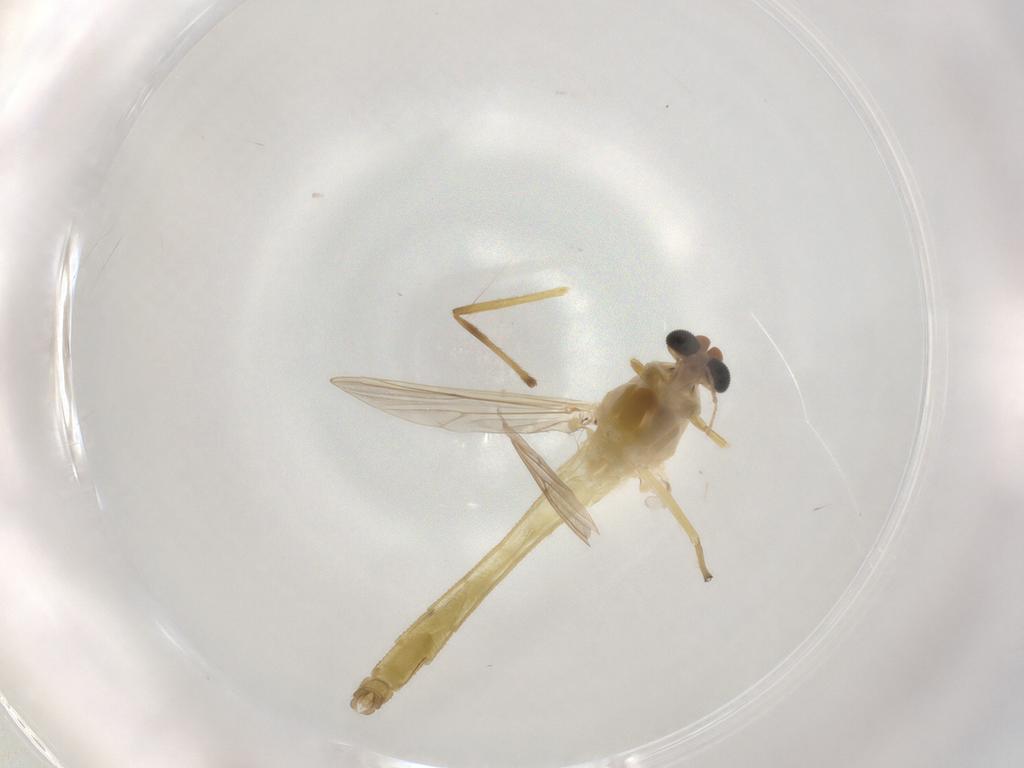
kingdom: Animalia
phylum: Arthropoda
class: Insecta
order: Diptera
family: Chironomidae
